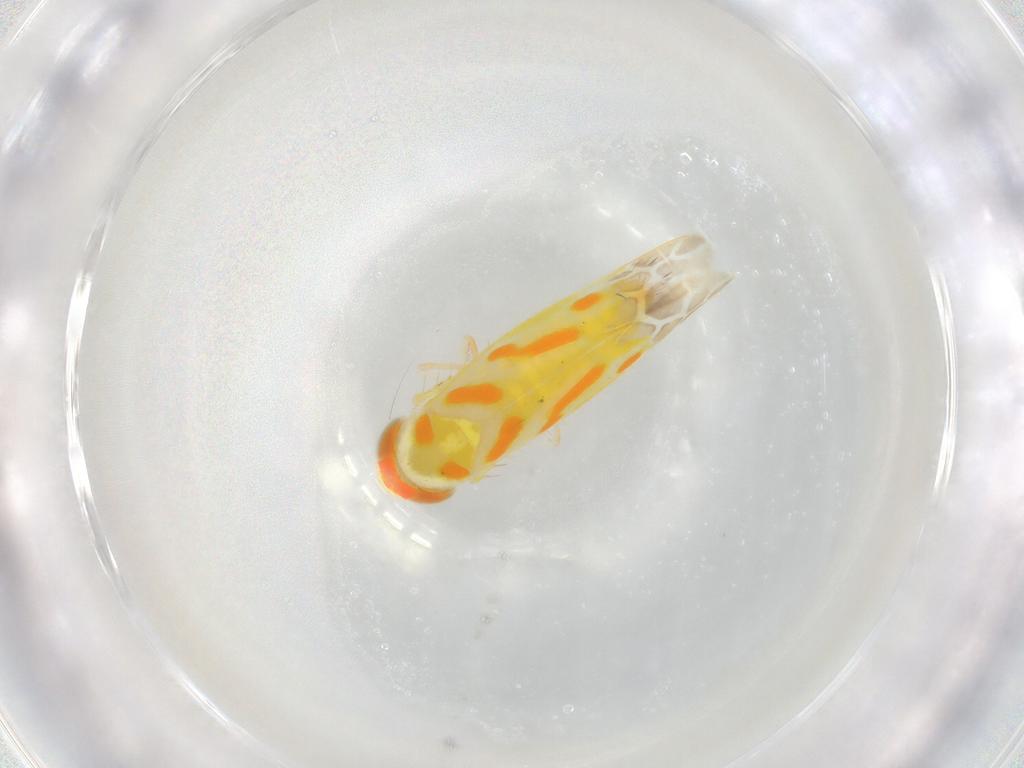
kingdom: Animalia
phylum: Arthropoda
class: Insecta
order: Hemiptera
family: Cicadellidae
